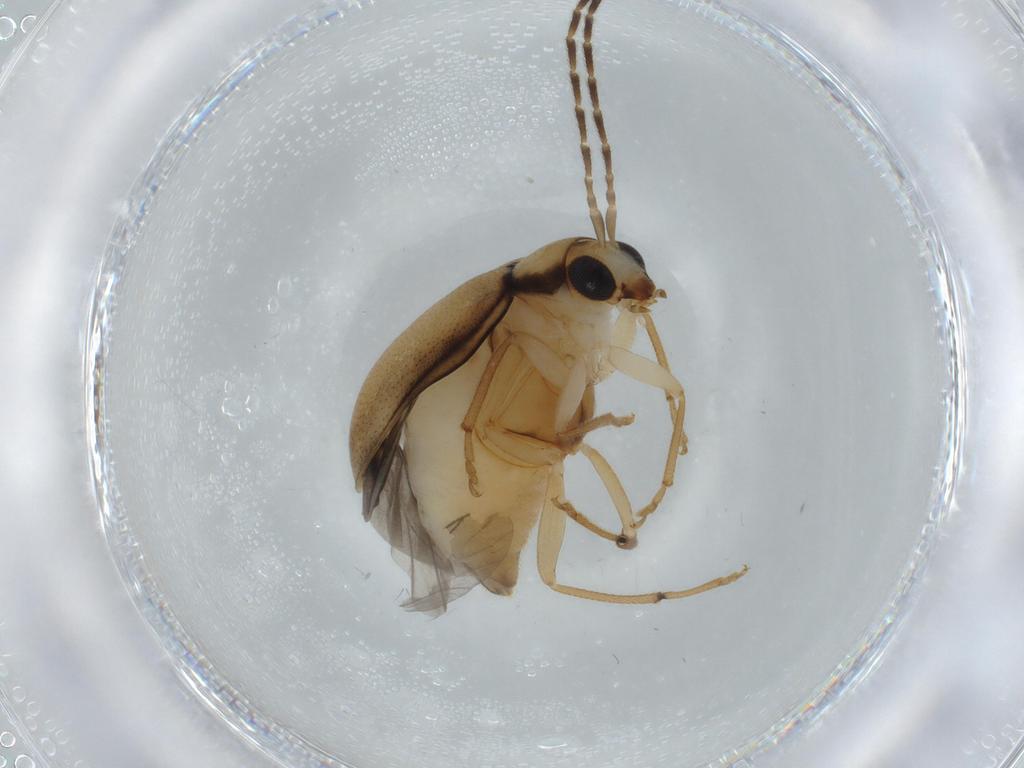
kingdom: Animalia
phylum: Arthropoda
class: Insecta
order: Coleoptera
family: Chrysomelidae
